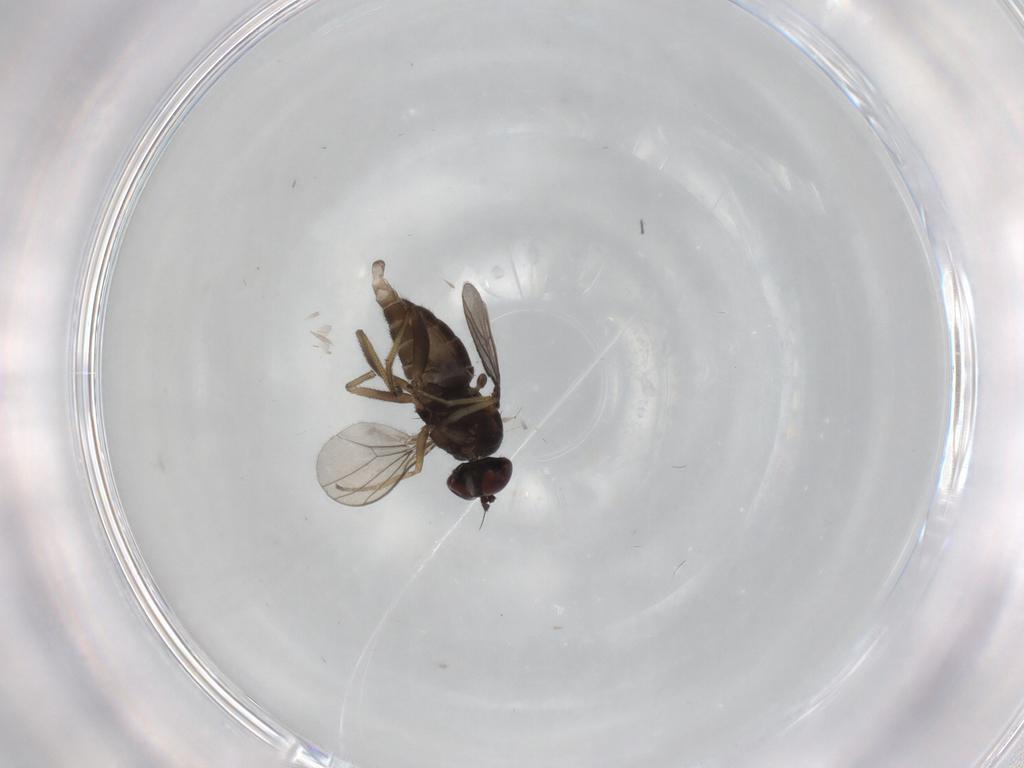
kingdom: Animalia
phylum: Arthropoda
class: Insecta
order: Diptera
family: Dolichopodidae
